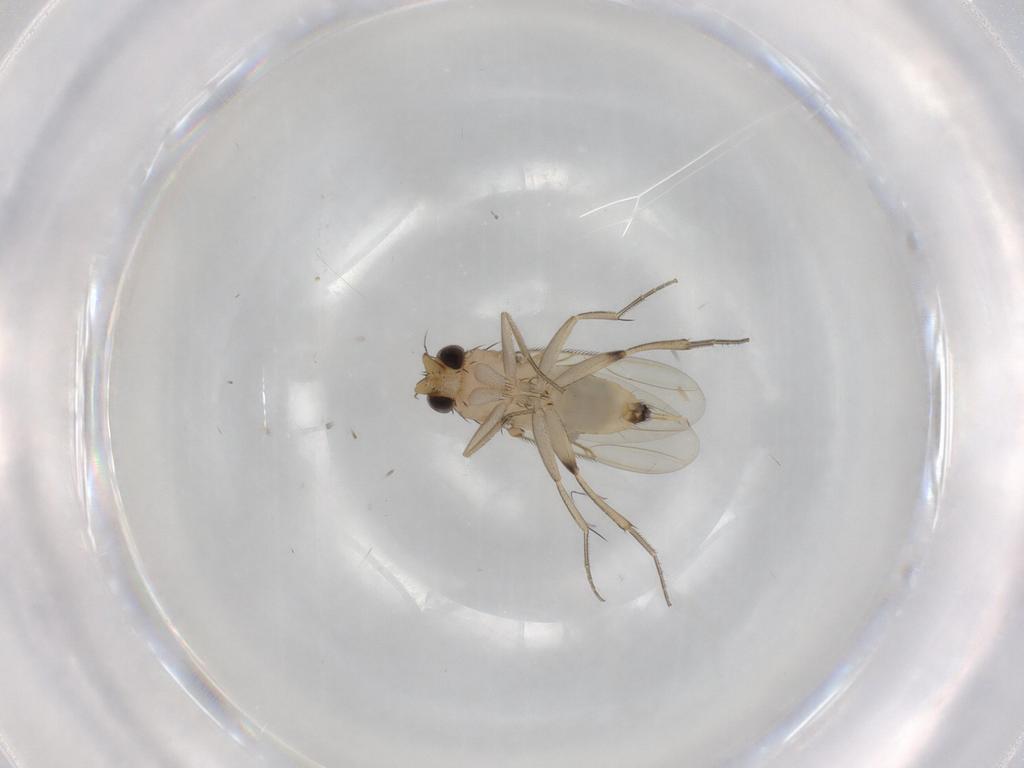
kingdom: Animalia
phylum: Arthropoda
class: Insecta
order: Diptera
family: Phoridae
